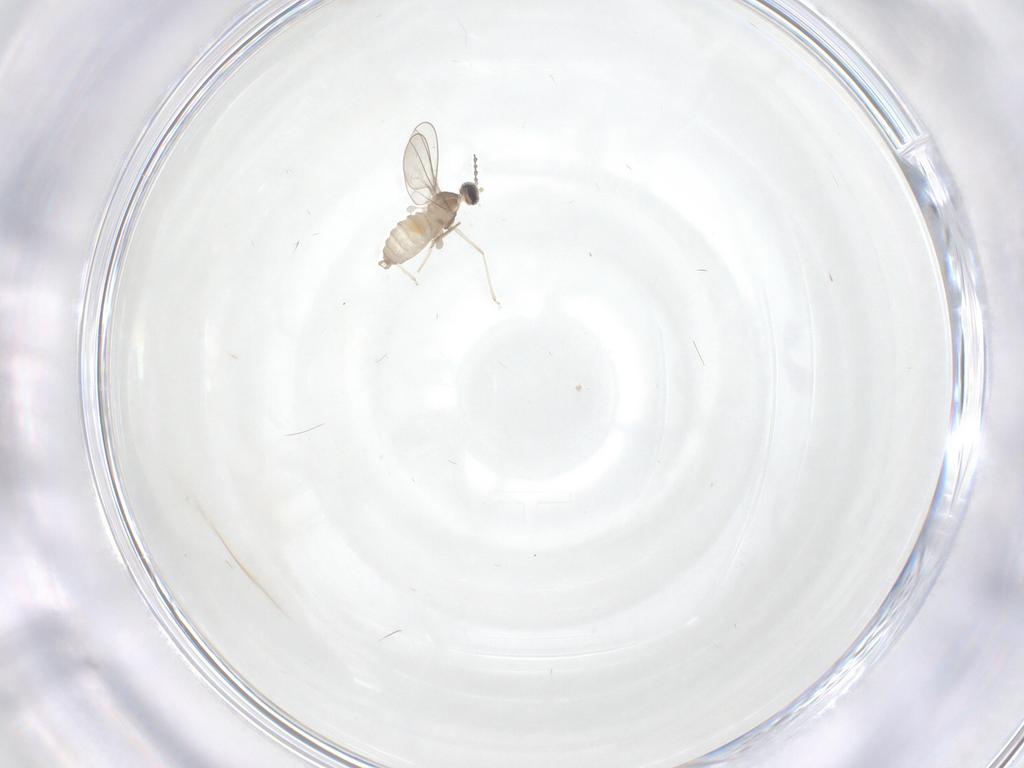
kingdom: Animalia
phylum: Arthropoda
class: Insecta
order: Diptera
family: Cecidomyiidae
